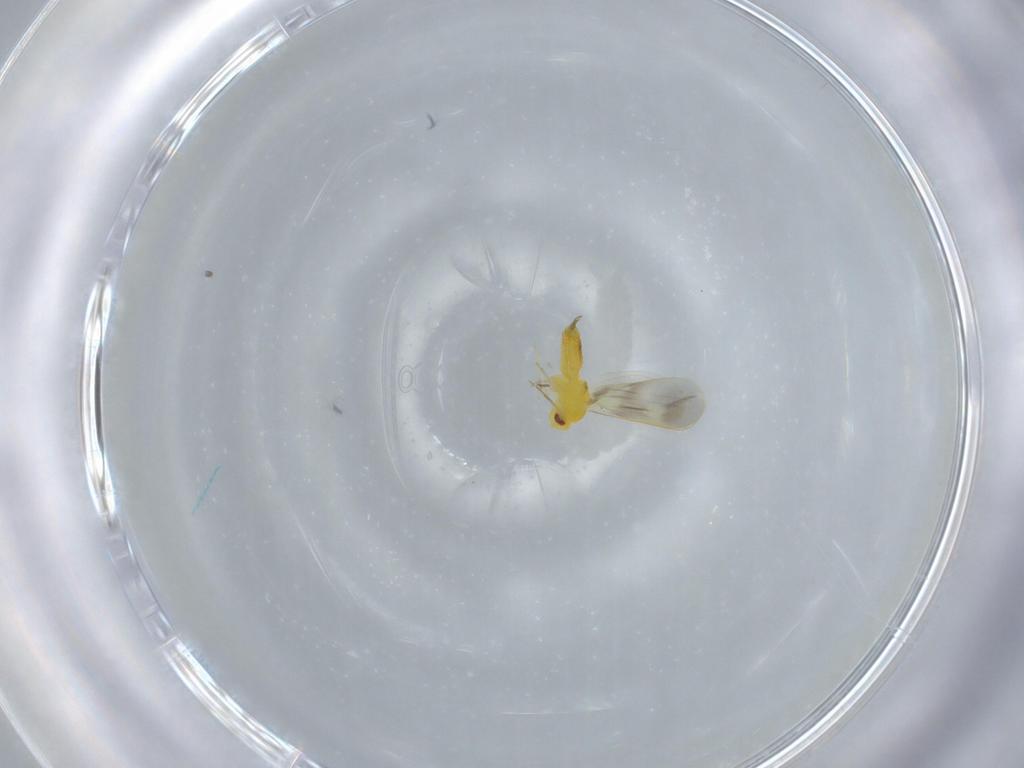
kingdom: Animalia
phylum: Arthropoda
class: Insecta
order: Hemiptera
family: Aleyrodidae
